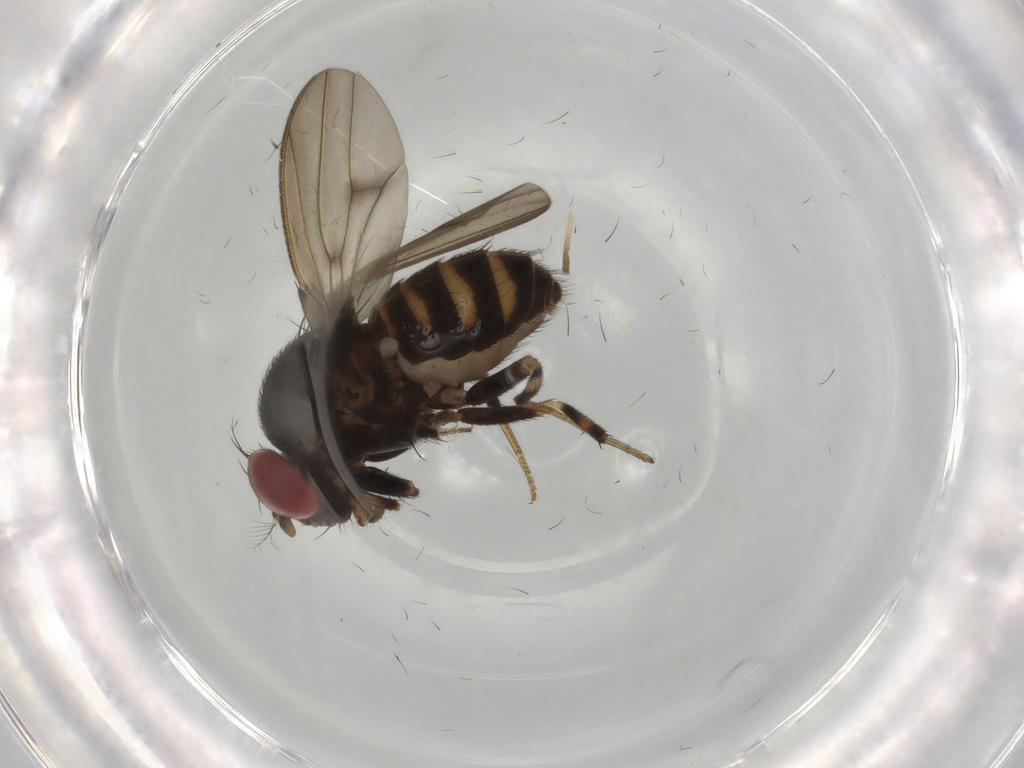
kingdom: Animalia
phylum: Arthropoda
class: Insecta
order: Diptera
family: Drosophilidae
